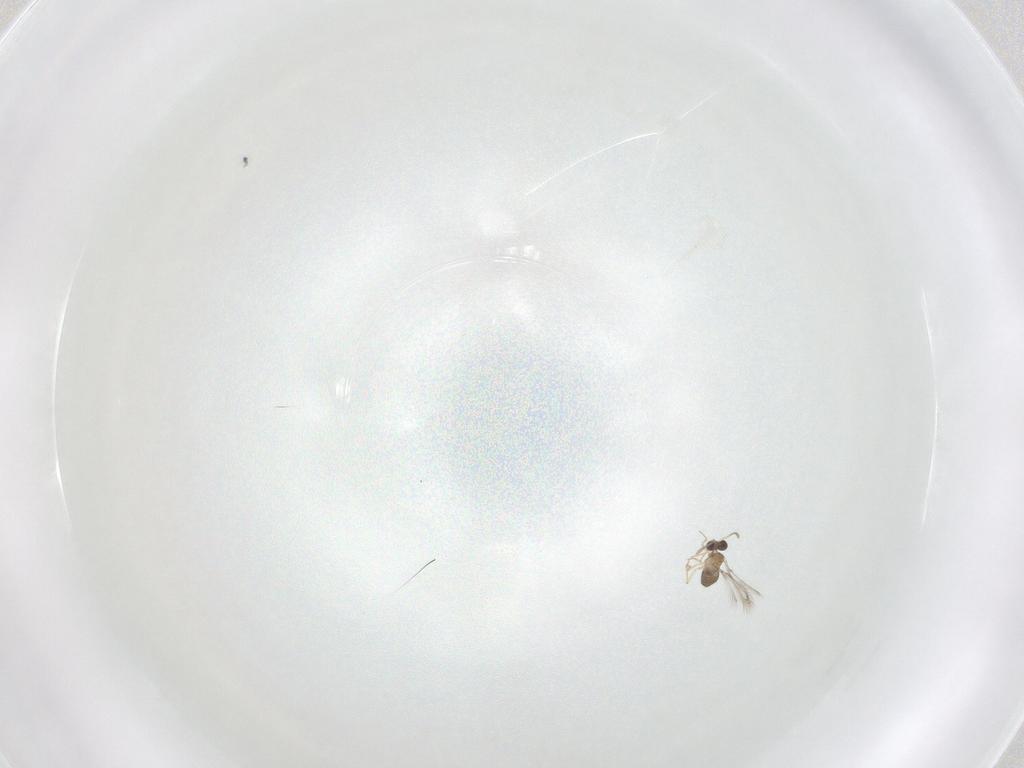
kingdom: Animalia
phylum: Arthropoda
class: Insecta
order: Hymenoptera
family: Mymaridae
